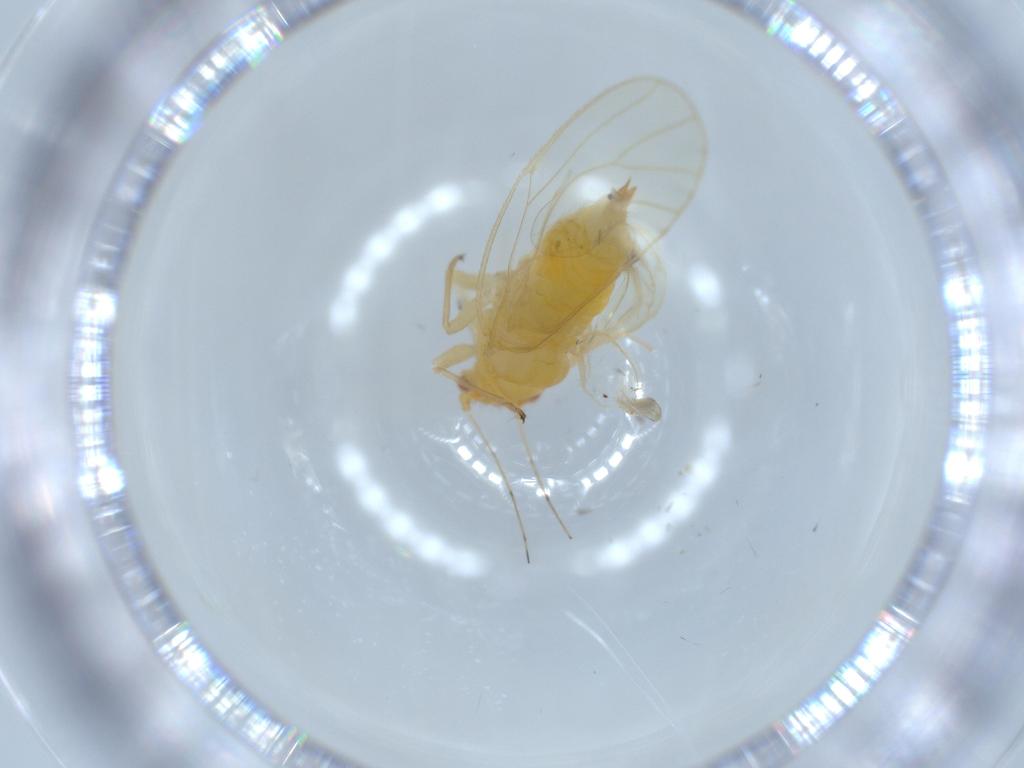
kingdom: Animalia
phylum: Arthropoda
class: Insecta
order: Hemiptera
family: Psyllidae
